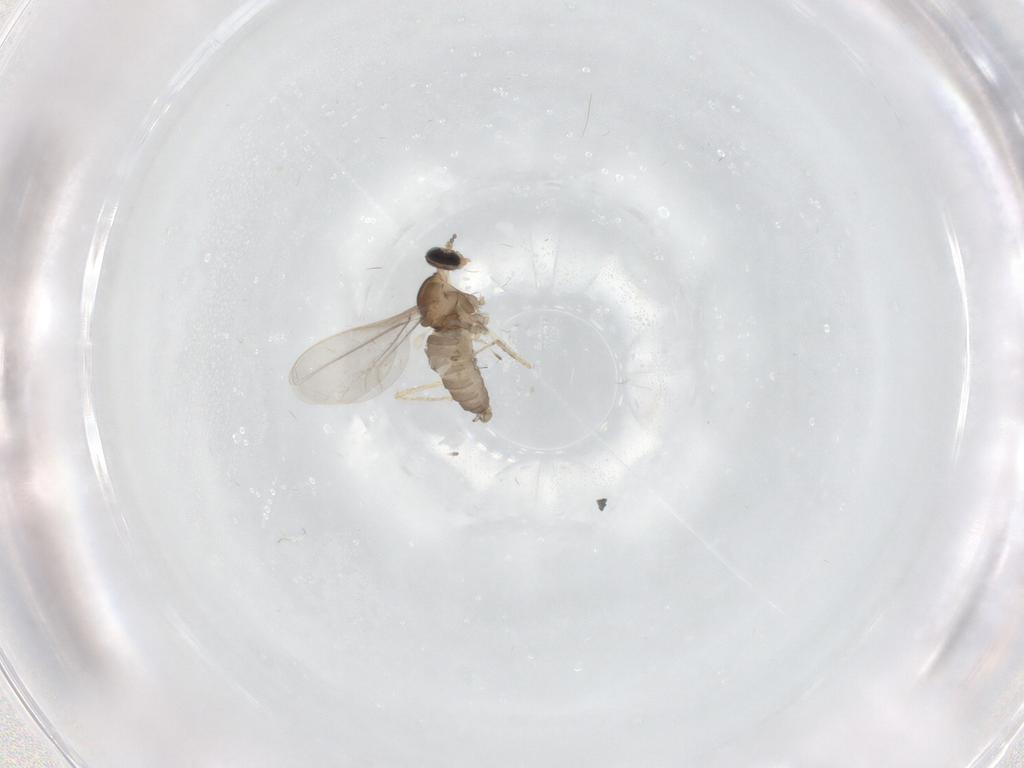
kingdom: Animalia
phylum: Arthropoda
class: Insecta
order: Diptera
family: Cecidomyiidae
